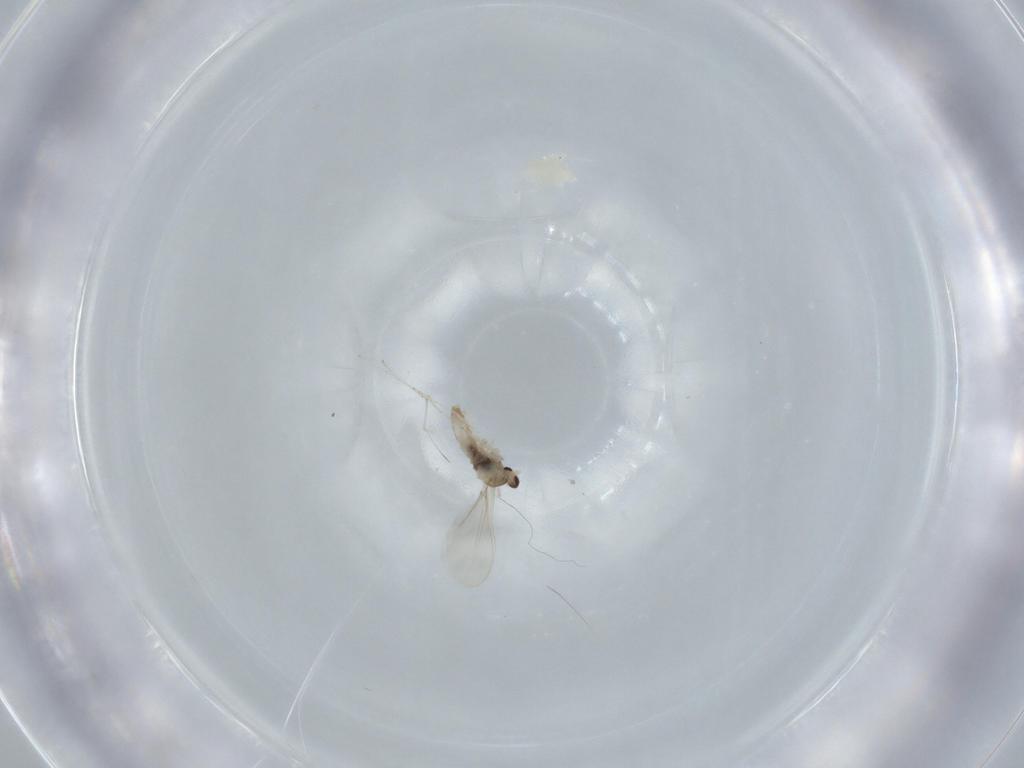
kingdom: Animalia
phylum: Arthropoda
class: Insecta
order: Diptera
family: Cecidomyiidae
